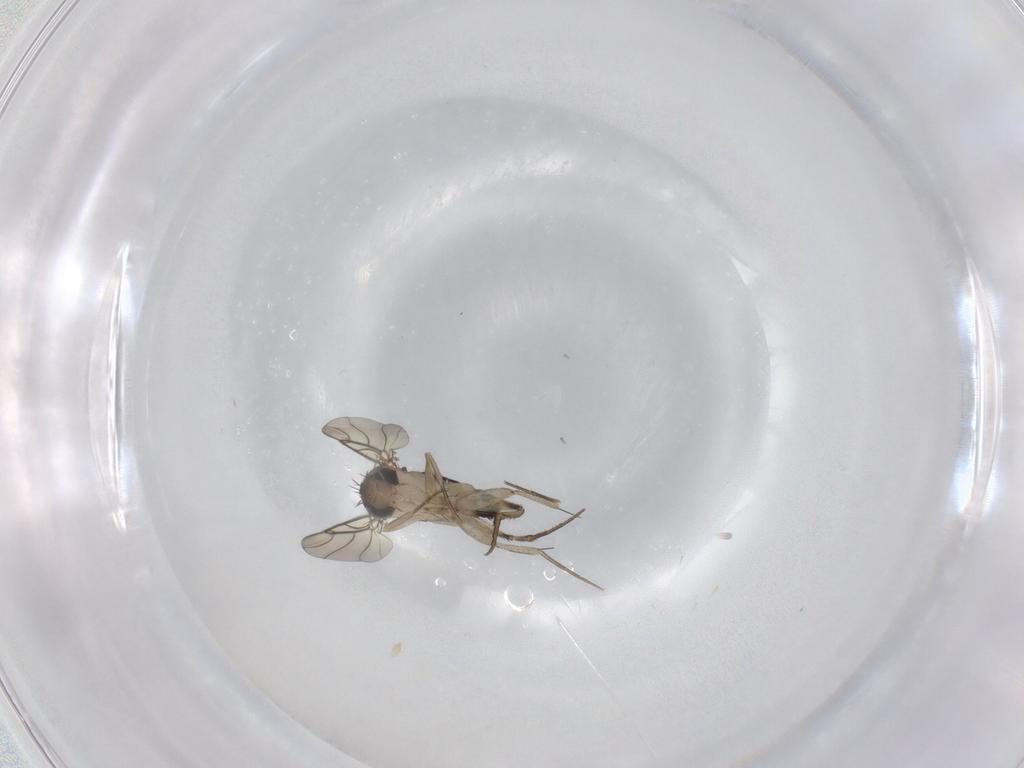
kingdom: Animalia
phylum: Arthropoda
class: Insecta
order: Diptera
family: Phoridae
